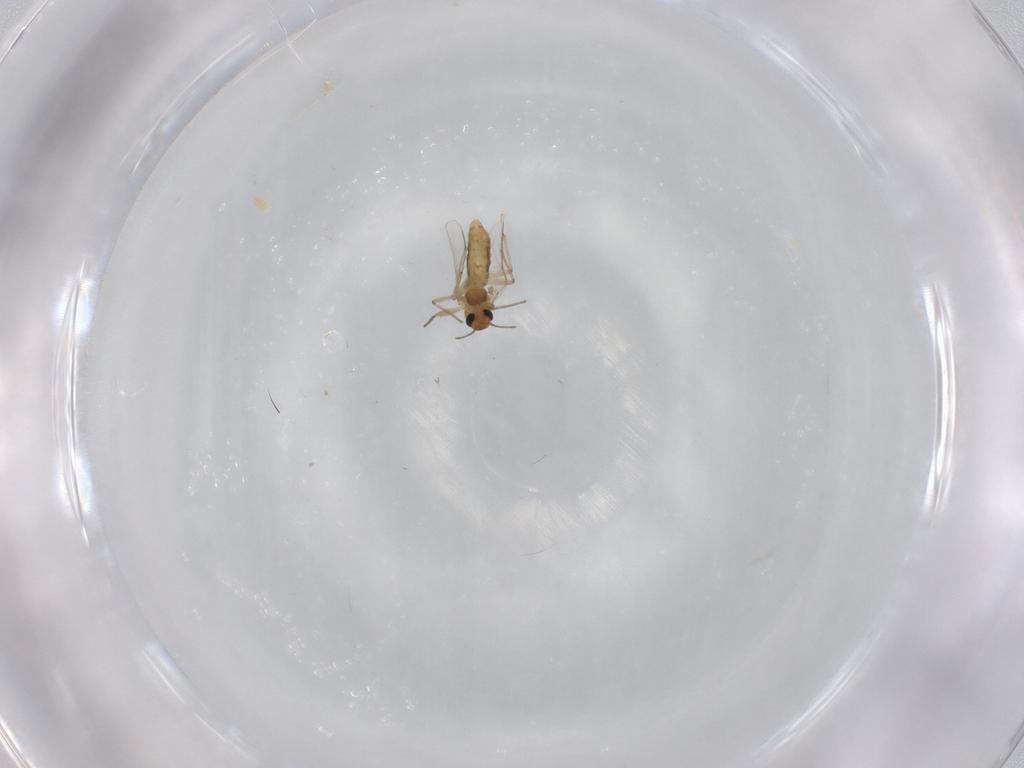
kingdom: Animalia
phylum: Arthropoda
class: Insecta
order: Diptera
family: Chironomidae
